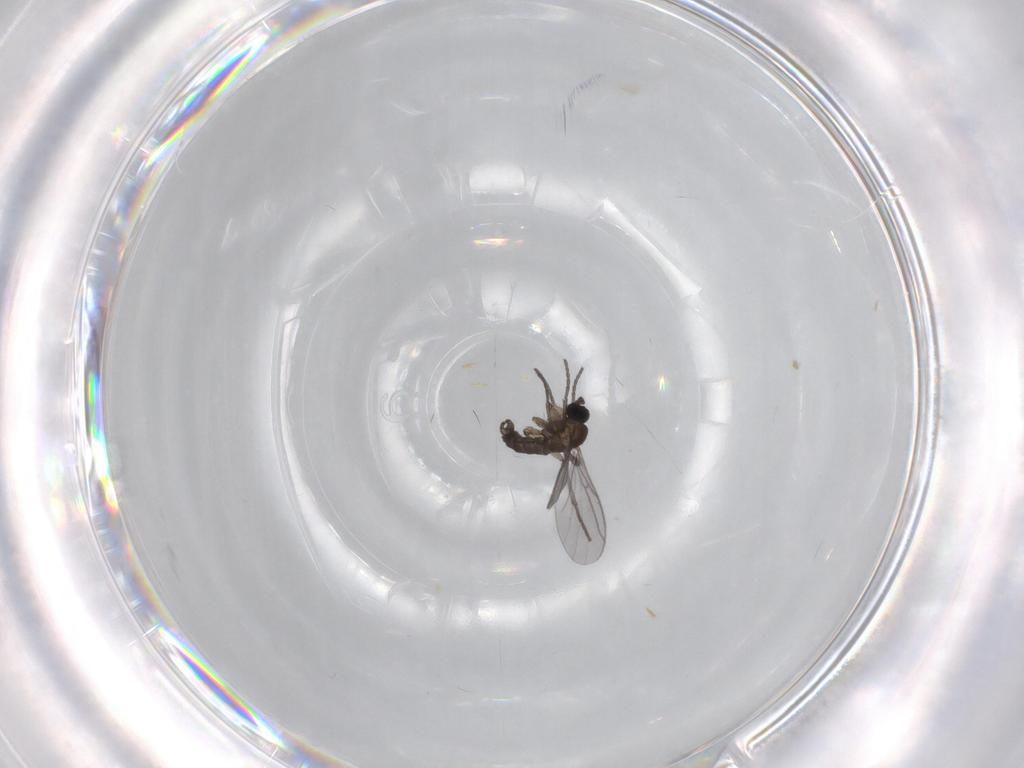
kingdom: Animalia
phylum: Arthropoda
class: Insecta
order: Diptera
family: Ceratopogonidae
